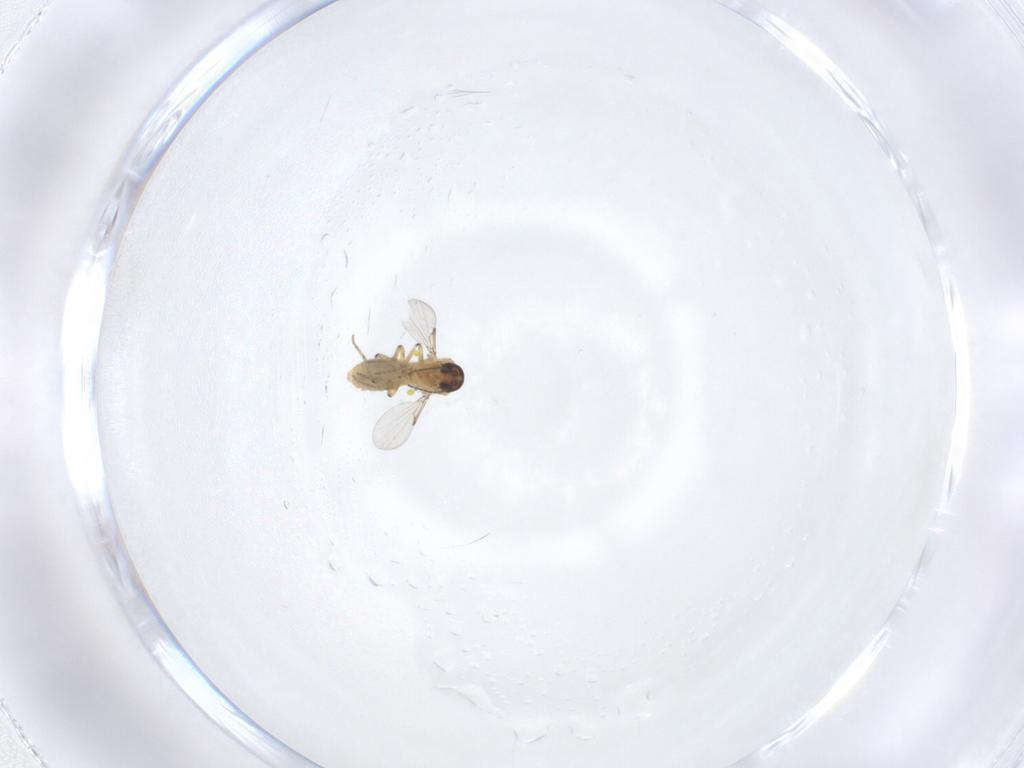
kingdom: Animalia
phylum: Arthropoda
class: Insecta
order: Diptera
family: Ceratopogonidae
